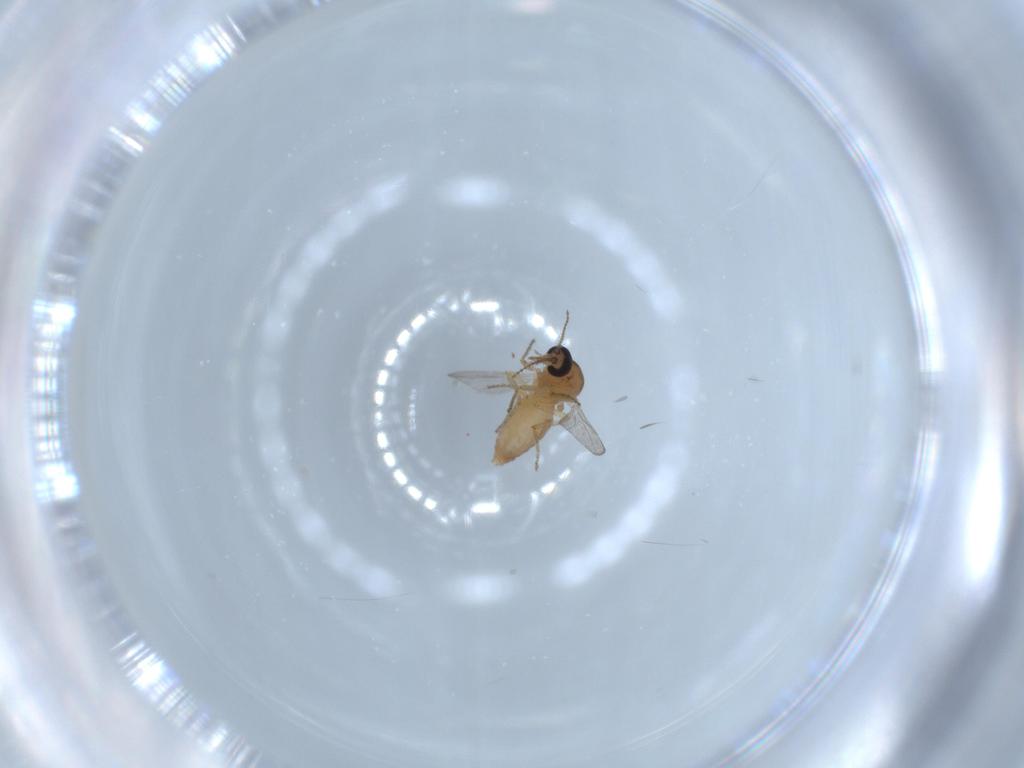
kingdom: Animalia
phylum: Arthropoda
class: Insecta
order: Diptera
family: Ceratopogonidae
